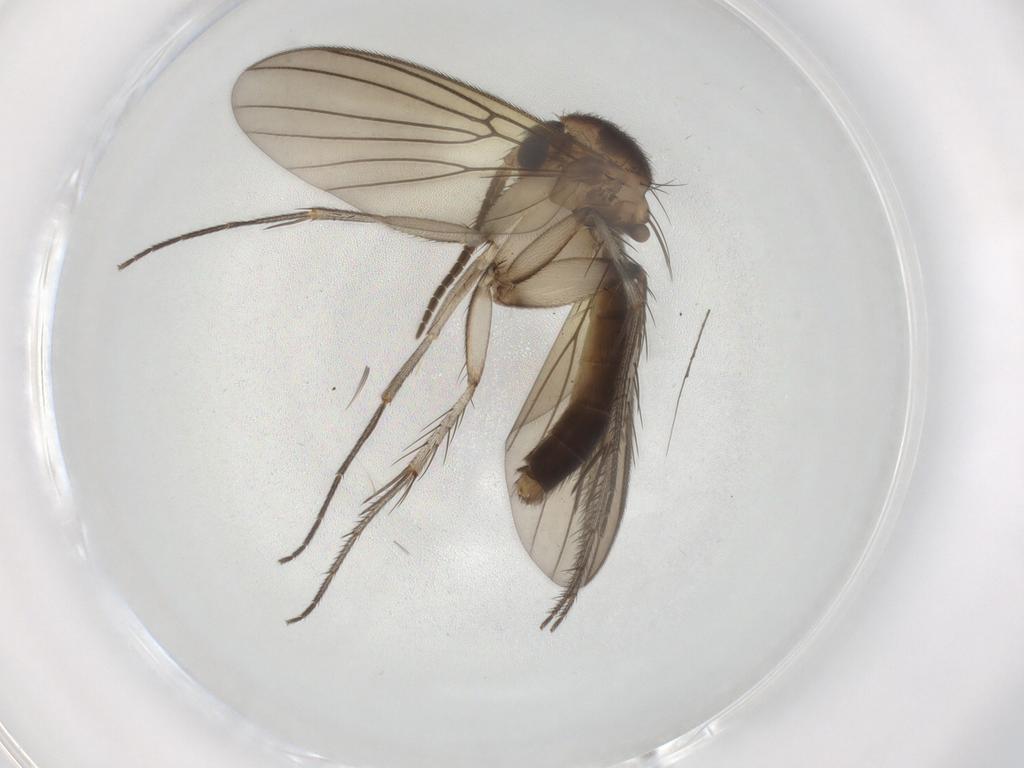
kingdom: Animalia
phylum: Arthropoda
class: Insecta
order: Diptera
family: Mycetophilidae
